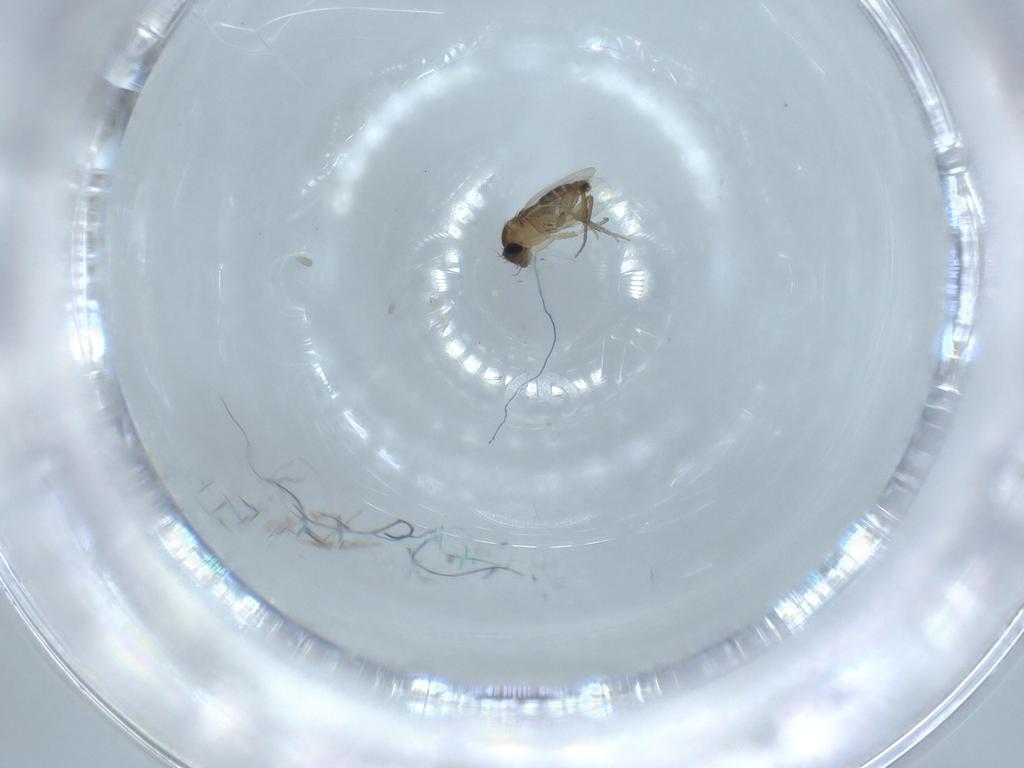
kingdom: Animalia
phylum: Arthropoda
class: Insecta
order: Diptera
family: Phoridae
